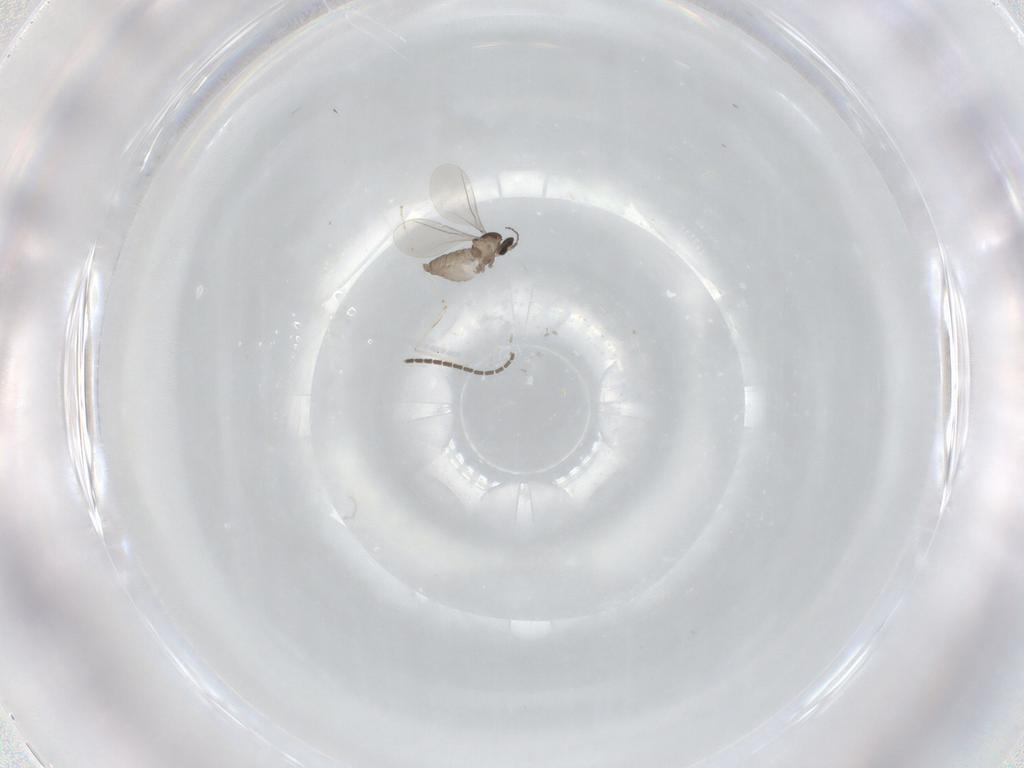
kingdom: Animalia
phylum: Arthropoda
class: Insecta
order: Diptera
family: Cecidomyiidae
